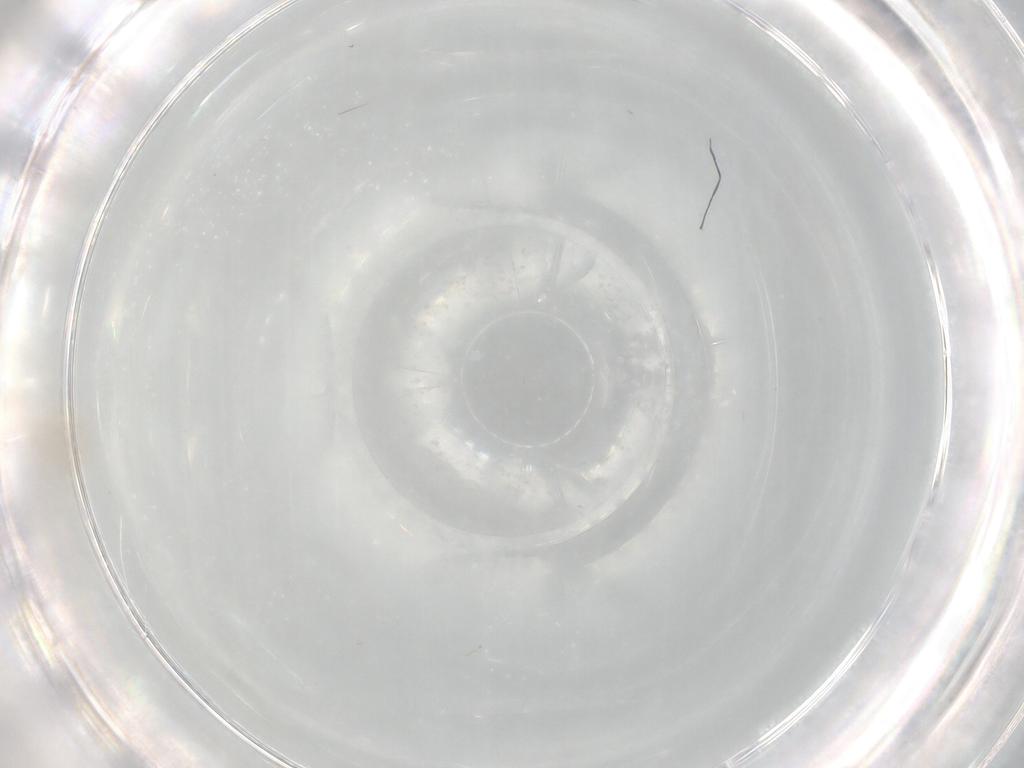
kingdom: Animalia
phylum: Arthropoda
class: Insecta
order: Diptera
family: Limoniidae
